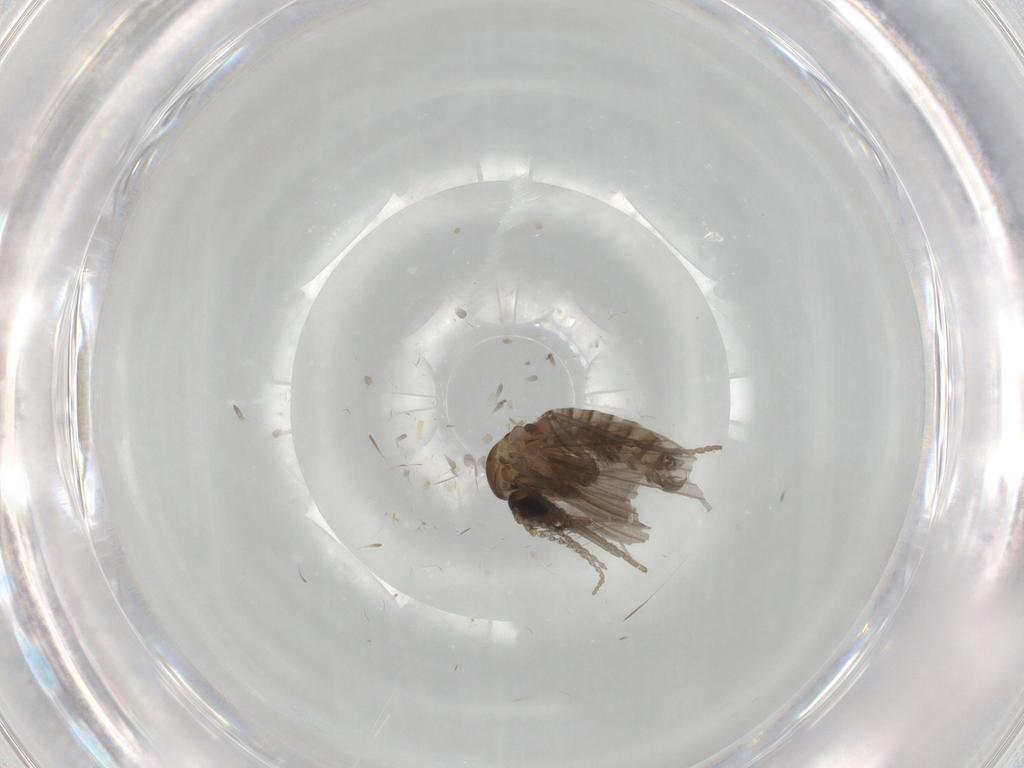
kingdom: Animalia
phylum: Arthropoda
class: Insecta
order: Diptera
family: Psychodidae
